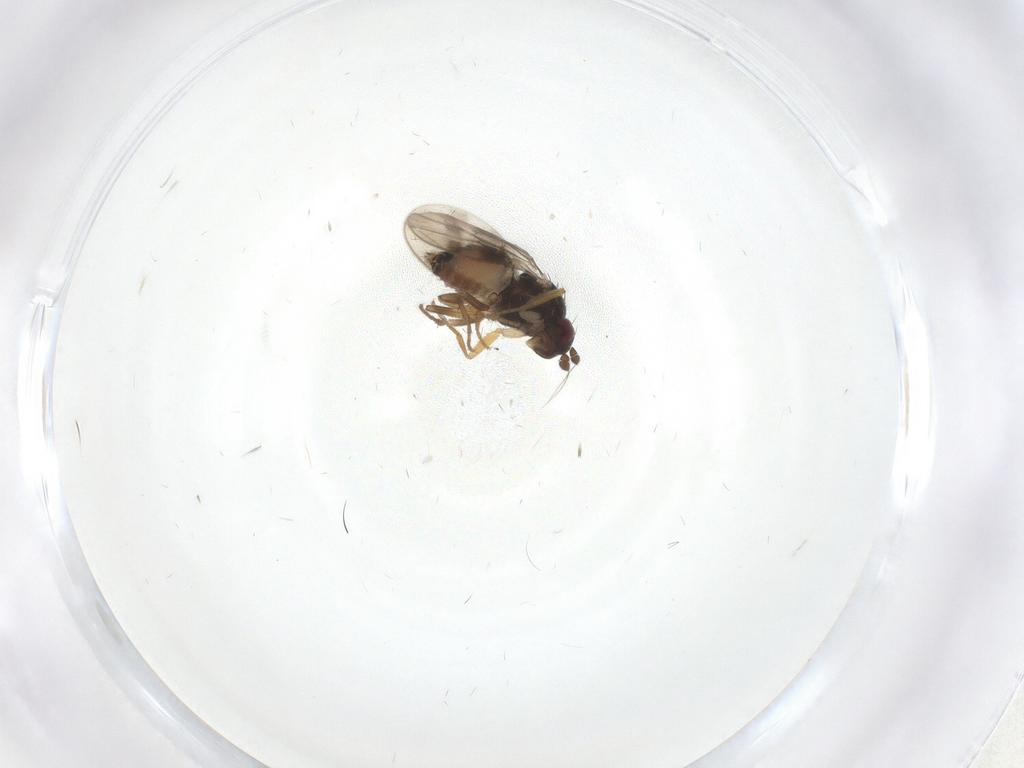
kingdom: Animalia
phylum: Arthropoda
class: Insecta
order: Diptera
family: Sphaeroceridae
